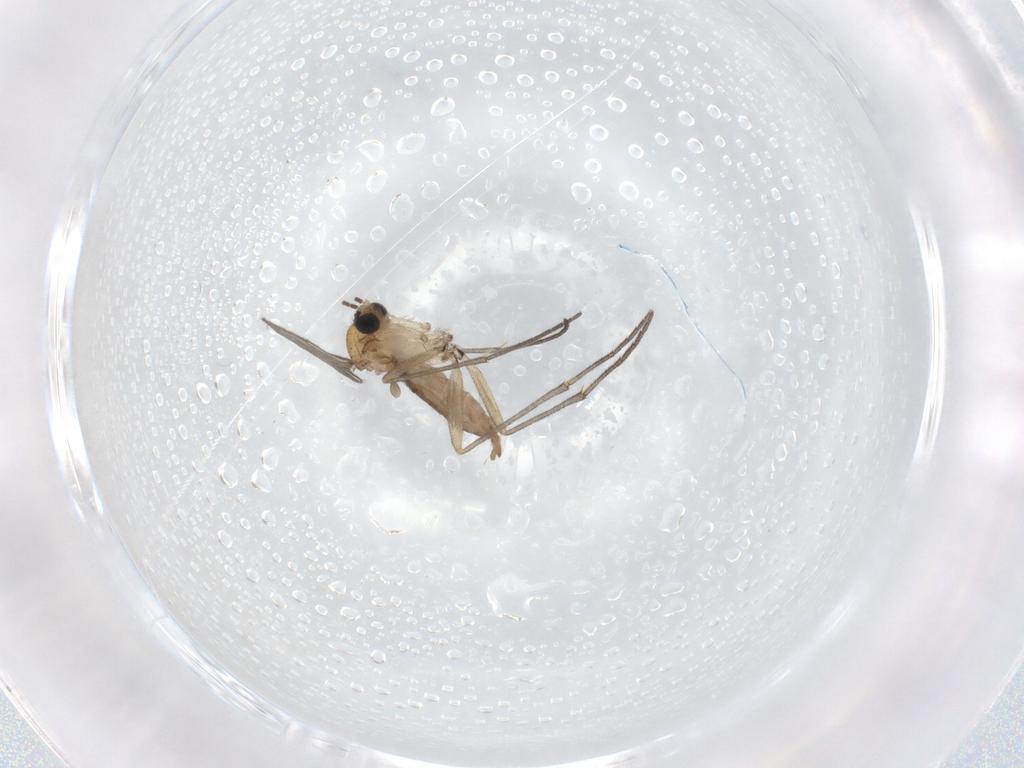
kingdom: Animalia
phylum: Arthropoda
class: Insecta
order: Diptera
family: Sciaridae
